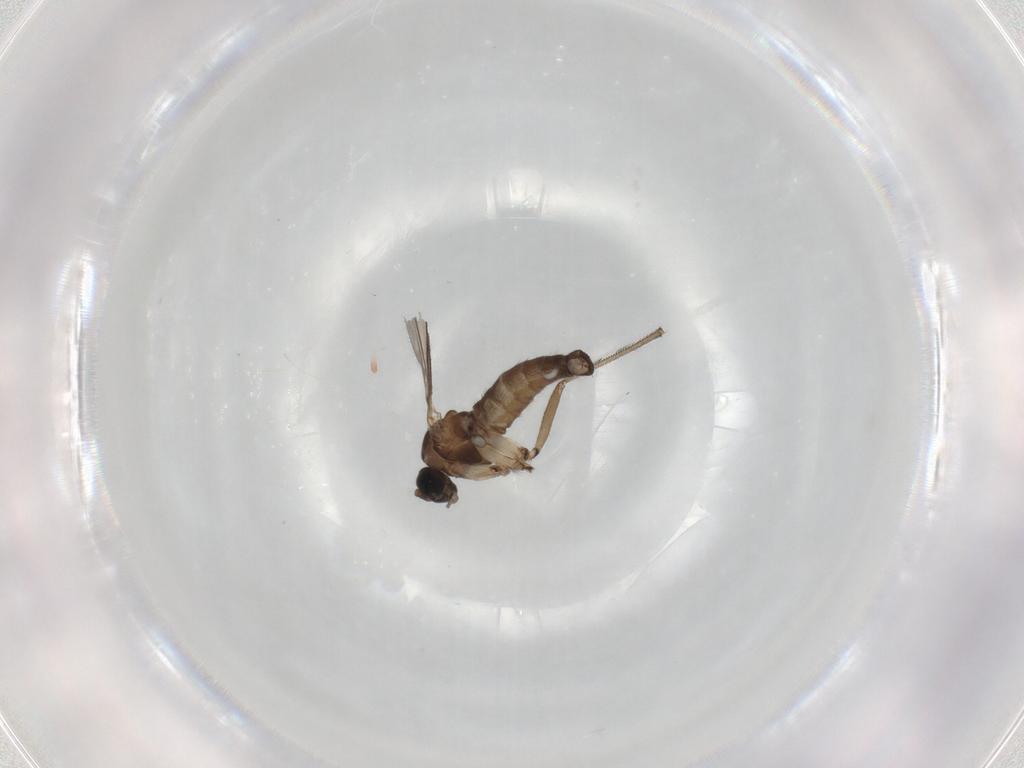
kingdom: Animalia
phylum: Arthropoda
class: Insecta
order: Diptera
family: Sciaridae
